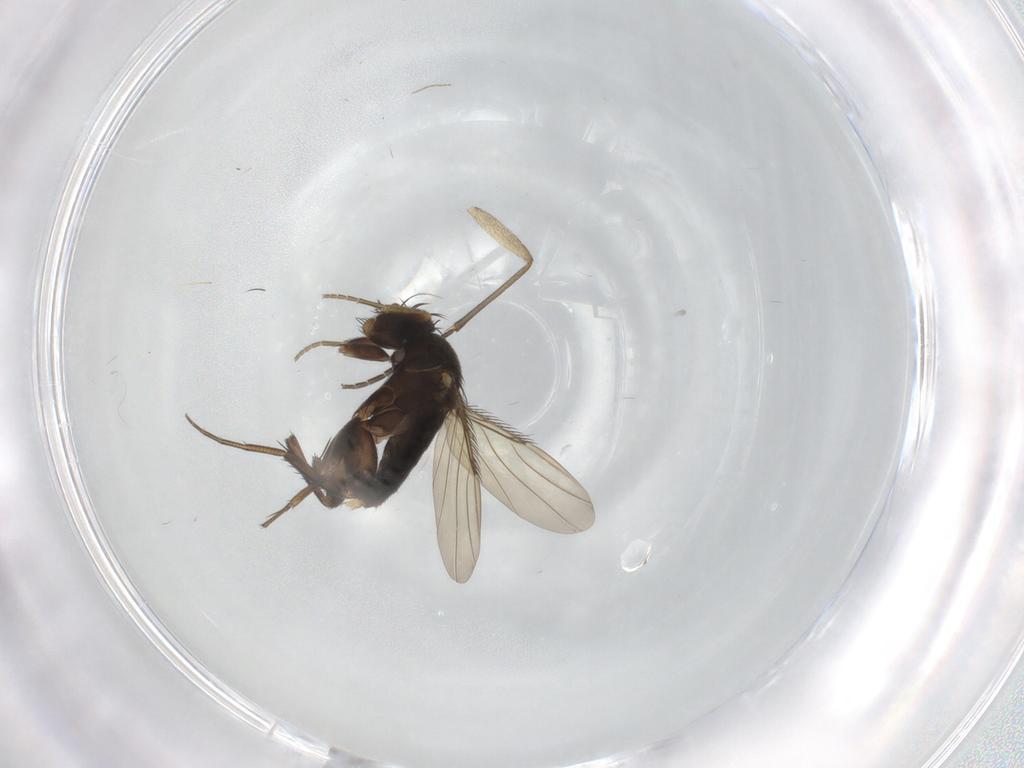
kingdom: Animalia
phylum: Arthropoda
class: Insecta
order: Diptera
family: Phoridae
